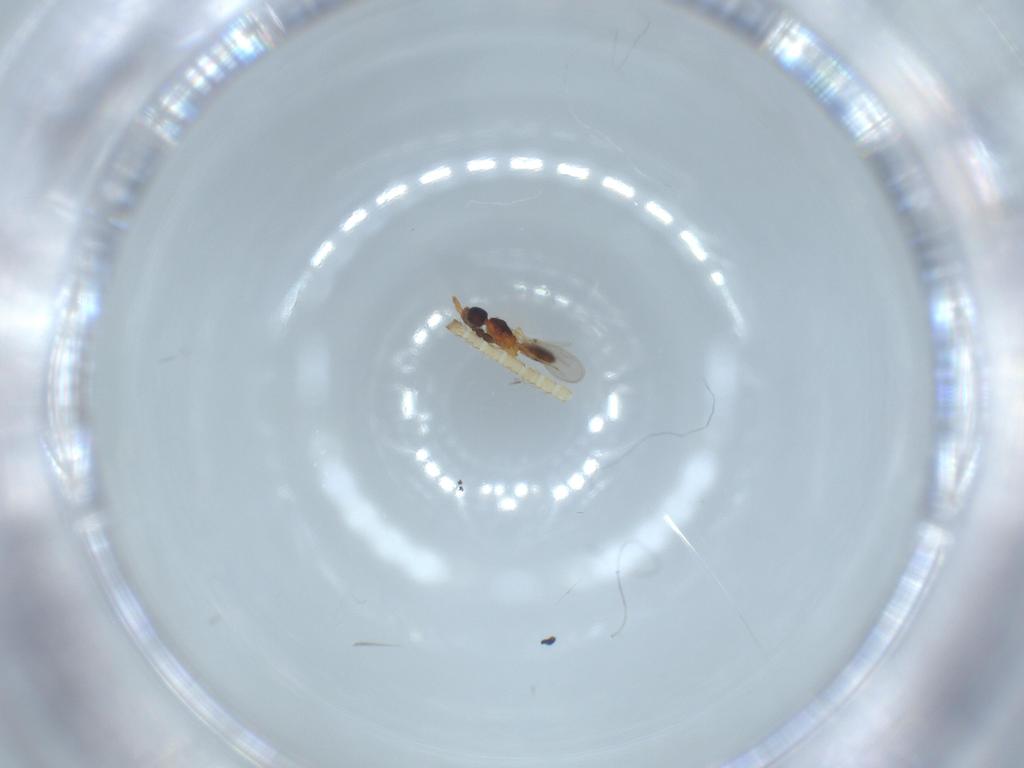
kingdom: Animalia
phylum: Arthropoda
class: Insecta
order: Hymenoptera
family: Diapriidae
